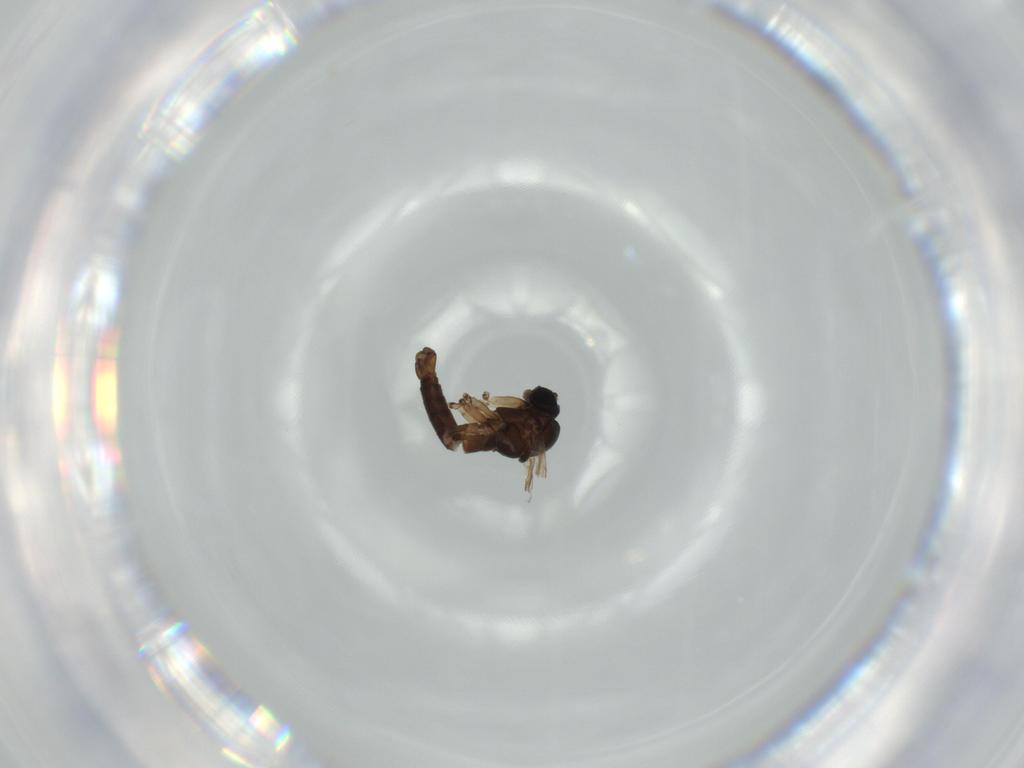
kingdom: Animalia
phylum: Arthropoda
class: Insecta
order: Diptera
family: Sciaridae
